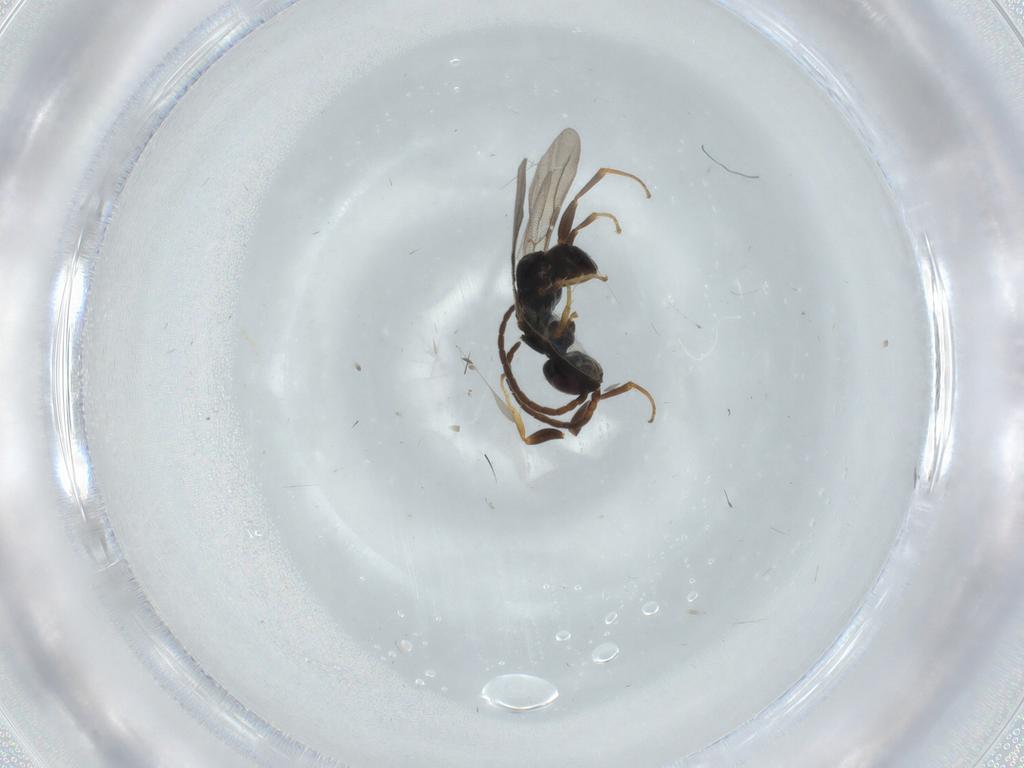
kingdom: Animalia
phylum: Arthropoda
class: Insecta
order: Hymenoptera
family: Bethylidae
